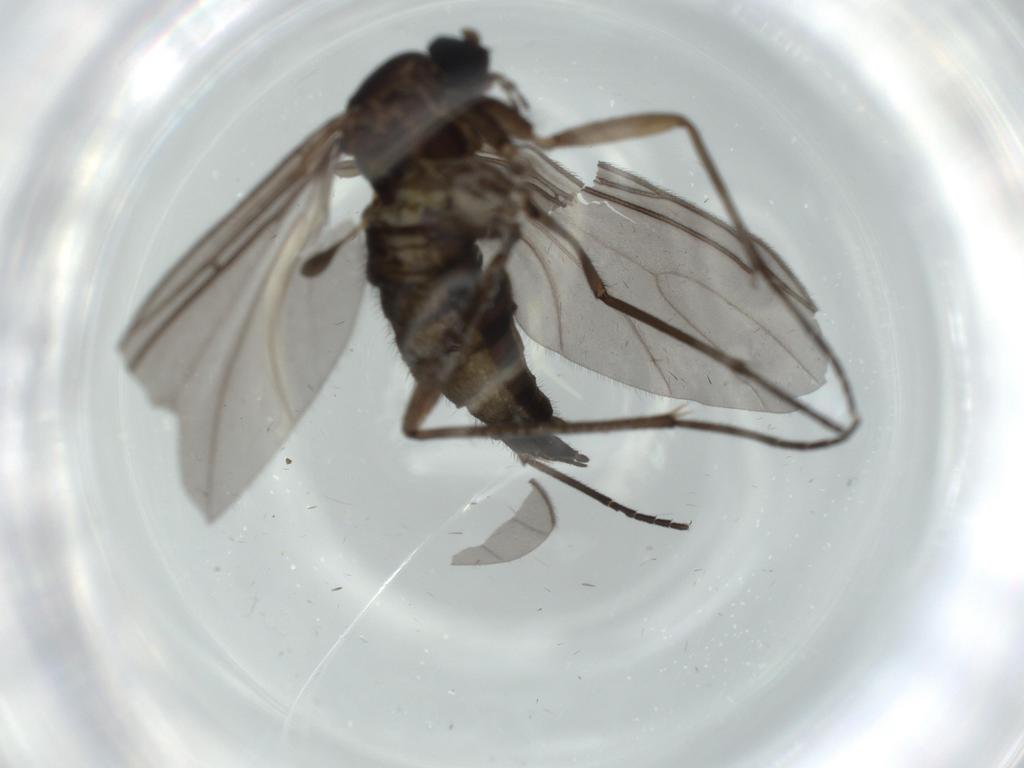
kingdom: Animalia
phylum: Arthropoda
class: Insecta
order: Diptera
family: Sciaridae
